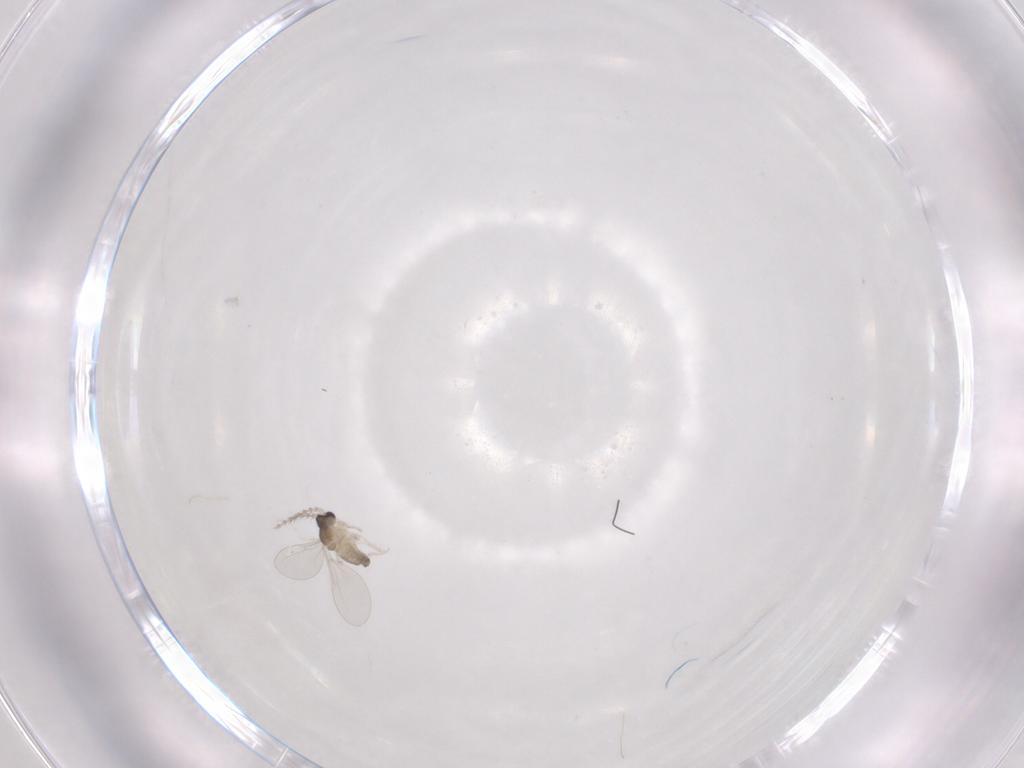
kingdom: Animalia
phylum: Arthropoda
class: Insecta
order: Diptera
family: Cecidomyiidae
